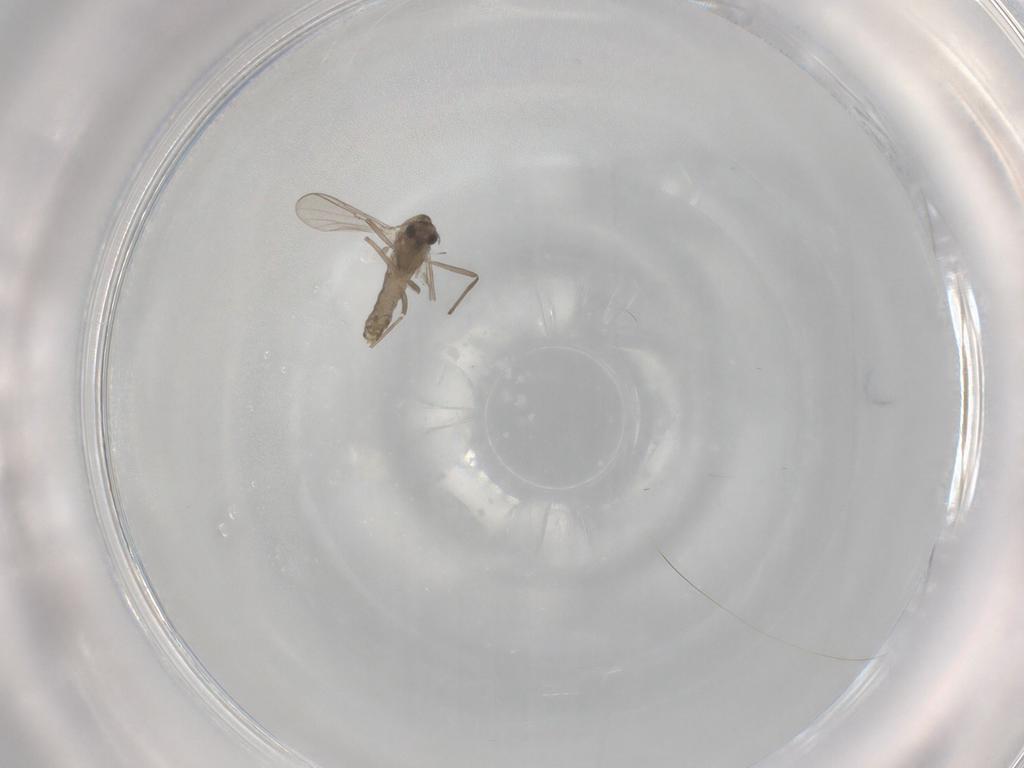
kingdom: Animalia
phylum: Arthropoda
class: Insecta
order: Diptera
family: Chironomidae
